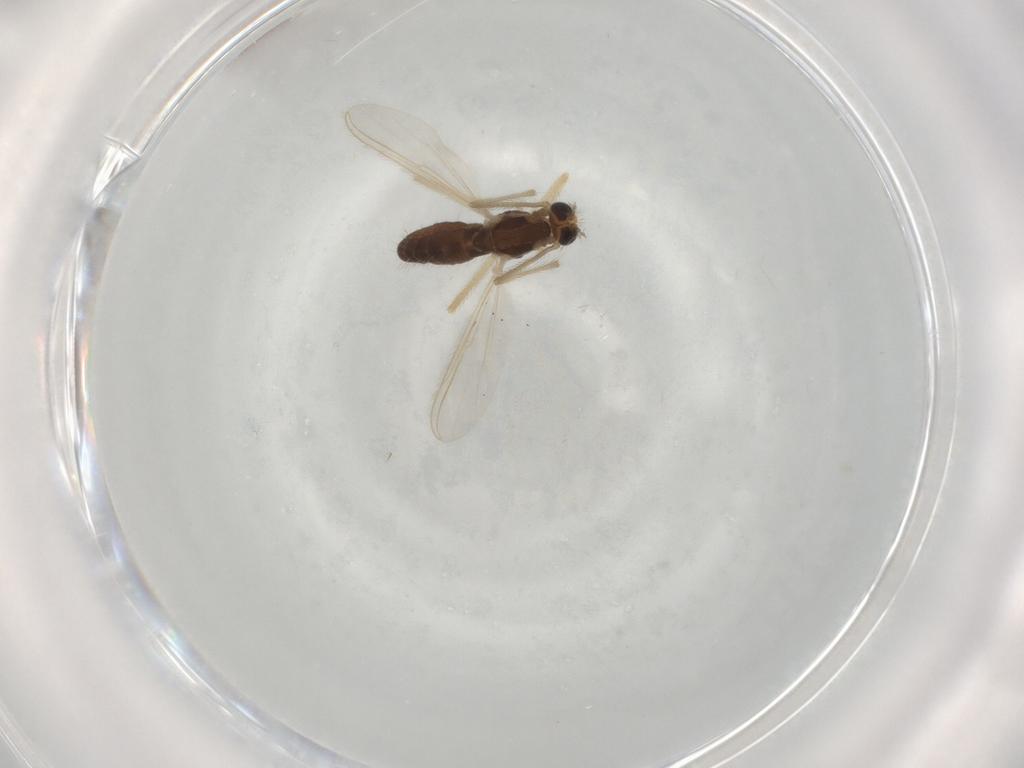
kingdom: Animalia
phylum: Arthropoda
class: Insecta
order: Diptera
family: Chironomidae
